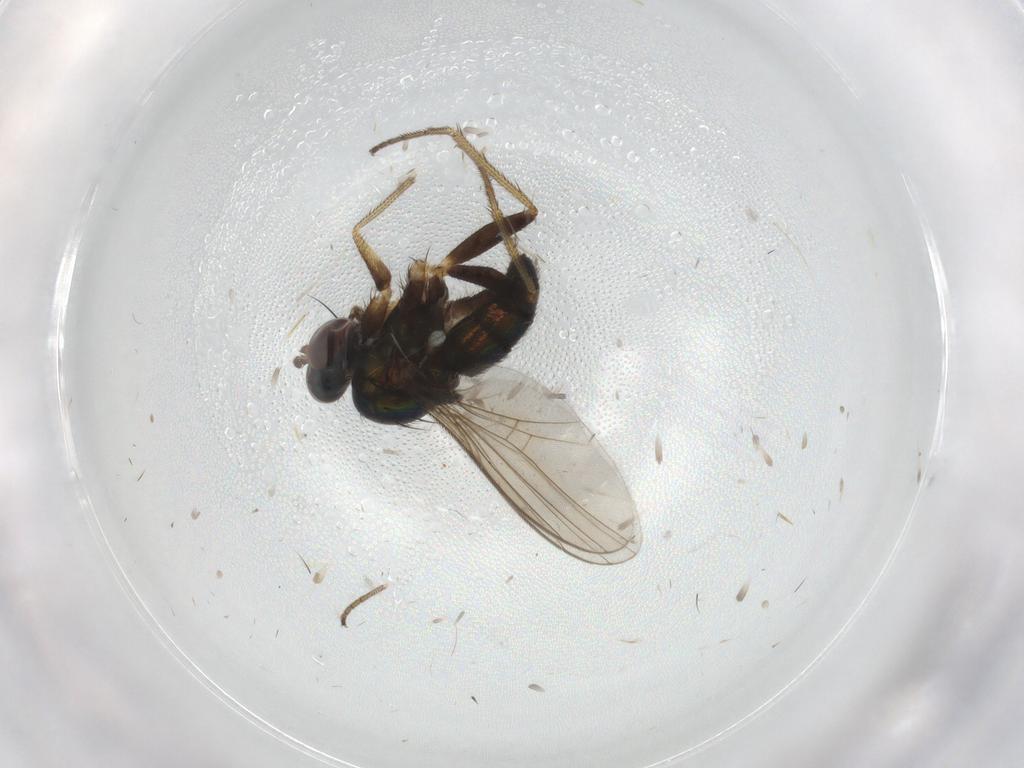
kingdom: Animalia
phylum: Arthropoda
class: Insecta
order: Diptera
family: Dolichopodidae
